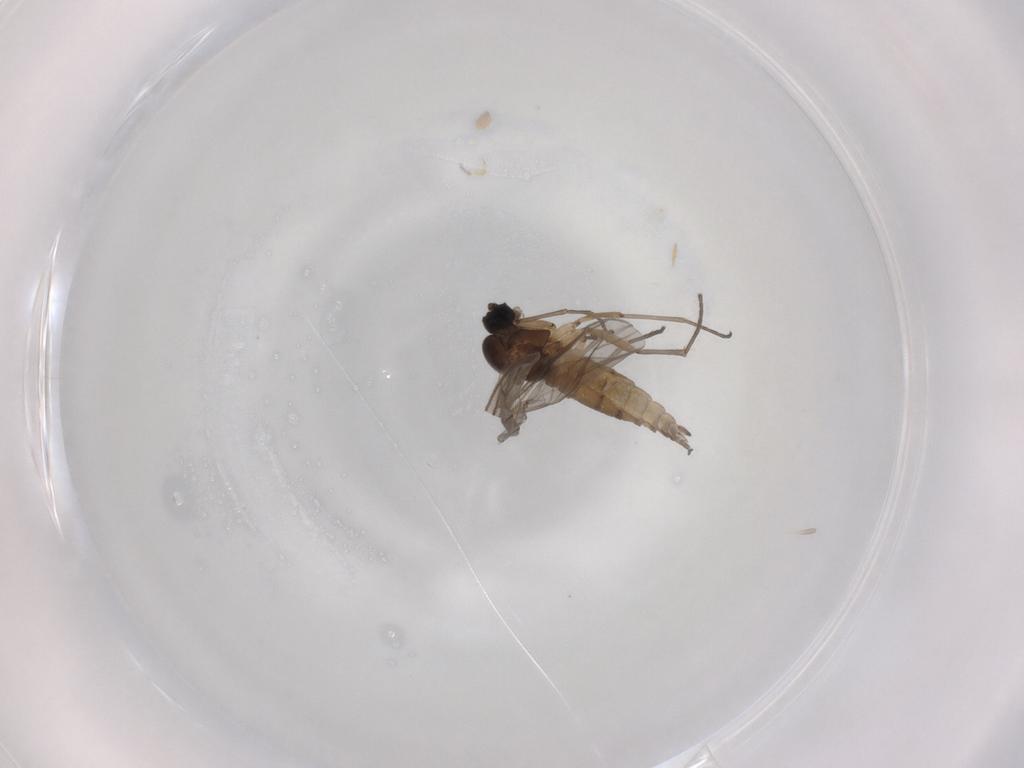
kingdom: Animalia
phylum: Arthropoda
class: Insecta
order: Diptera
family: Sciaridae
